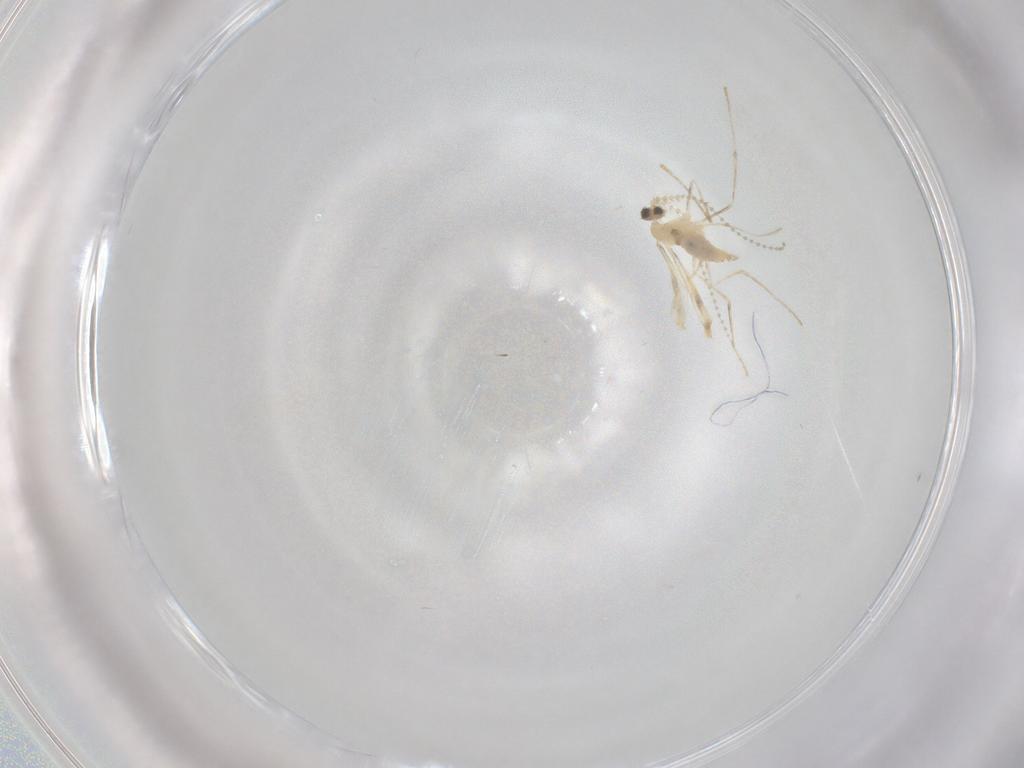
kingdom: Animalia
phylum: Arthropoda
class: Insecta
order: Diptera
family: Cecidomyiidae
